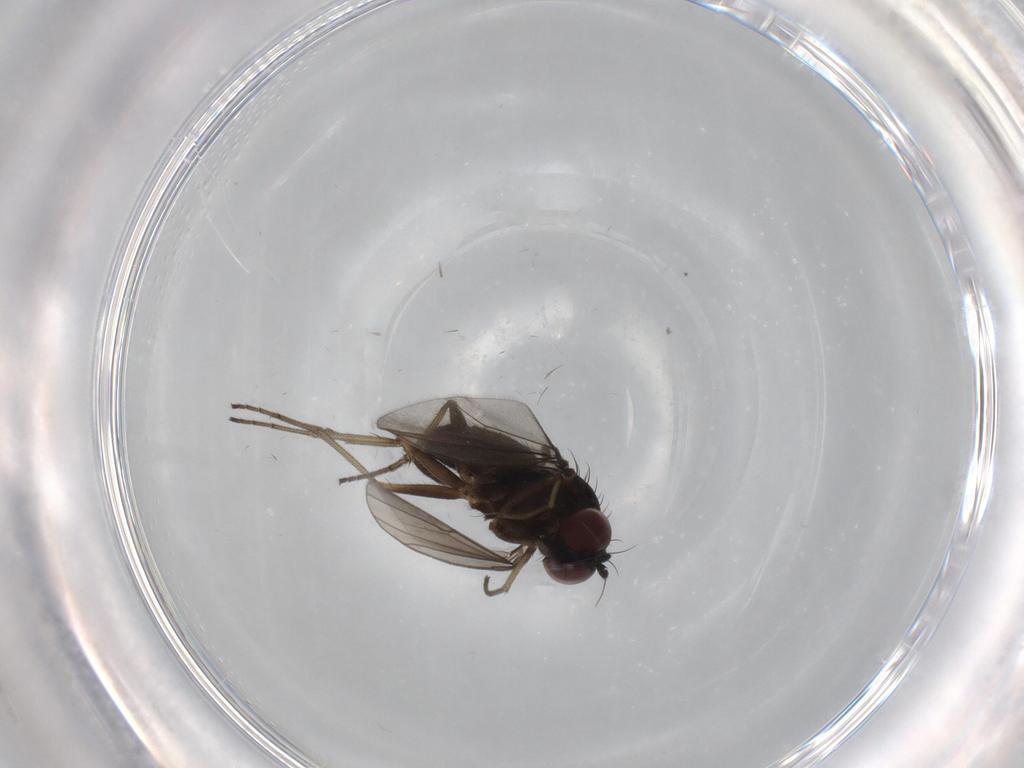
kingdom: Animalia
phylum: Arthropoda
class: Insecta
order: Diptera
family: Dolichopodidae
